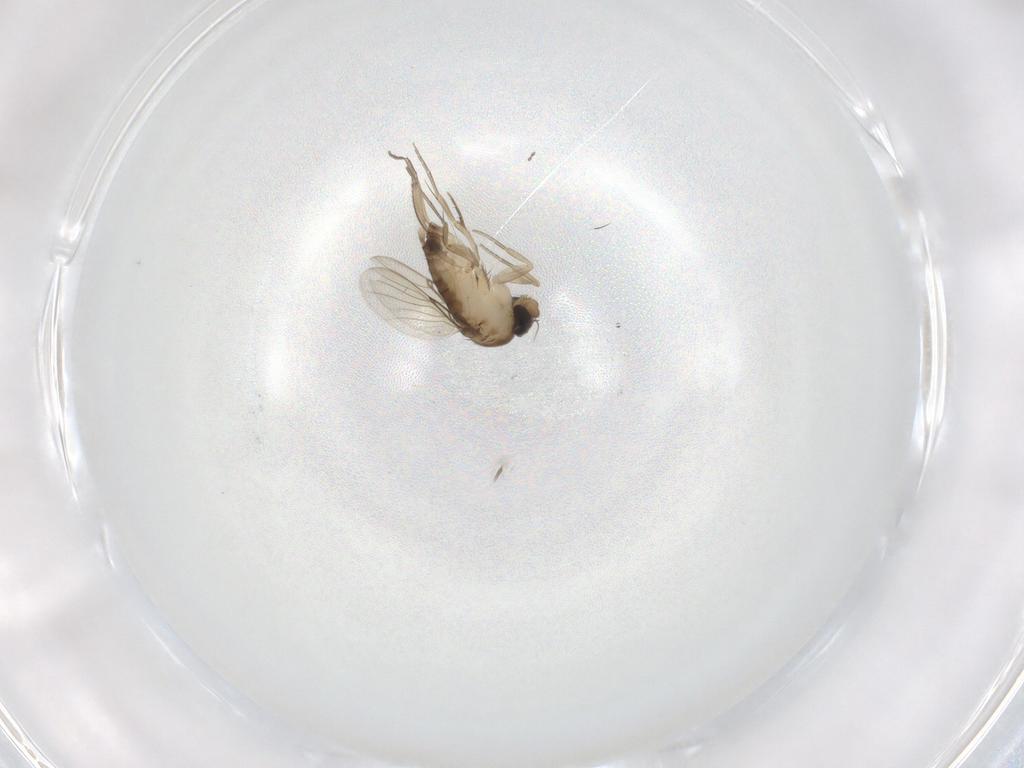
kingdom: Animalia
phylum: Arthropoda
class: Insecta
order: Diptera
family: Phoridae
